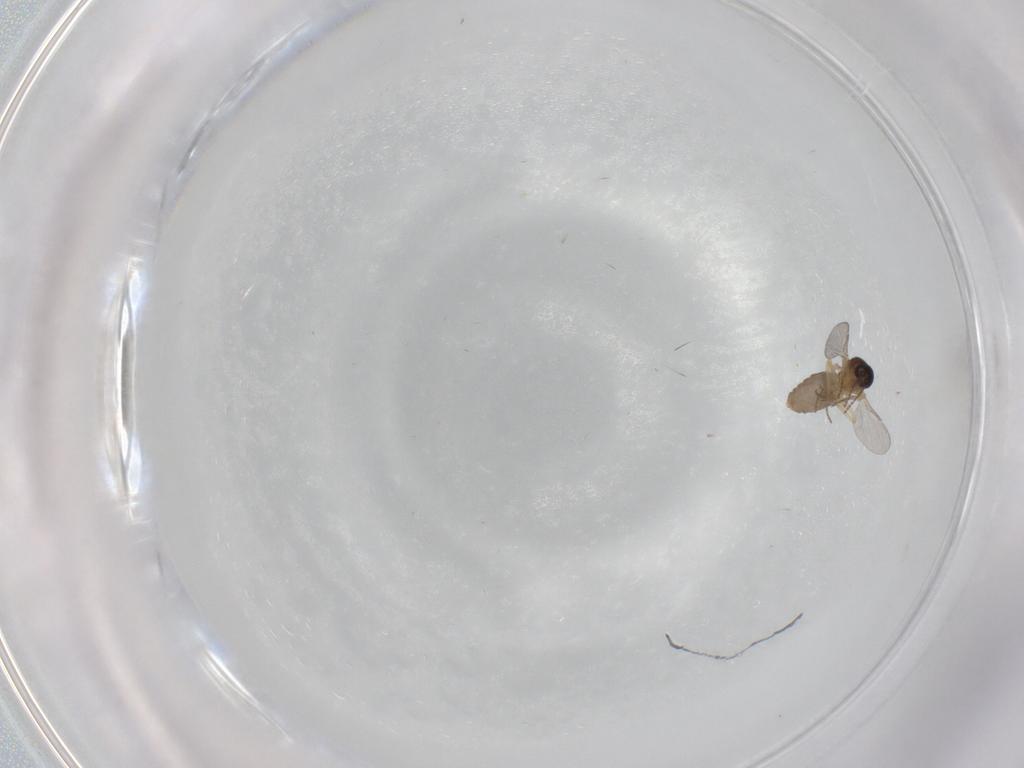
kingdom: Animalia
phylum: Arthropoda
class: Insecta
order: Diptera
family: Ceratopogonidae
